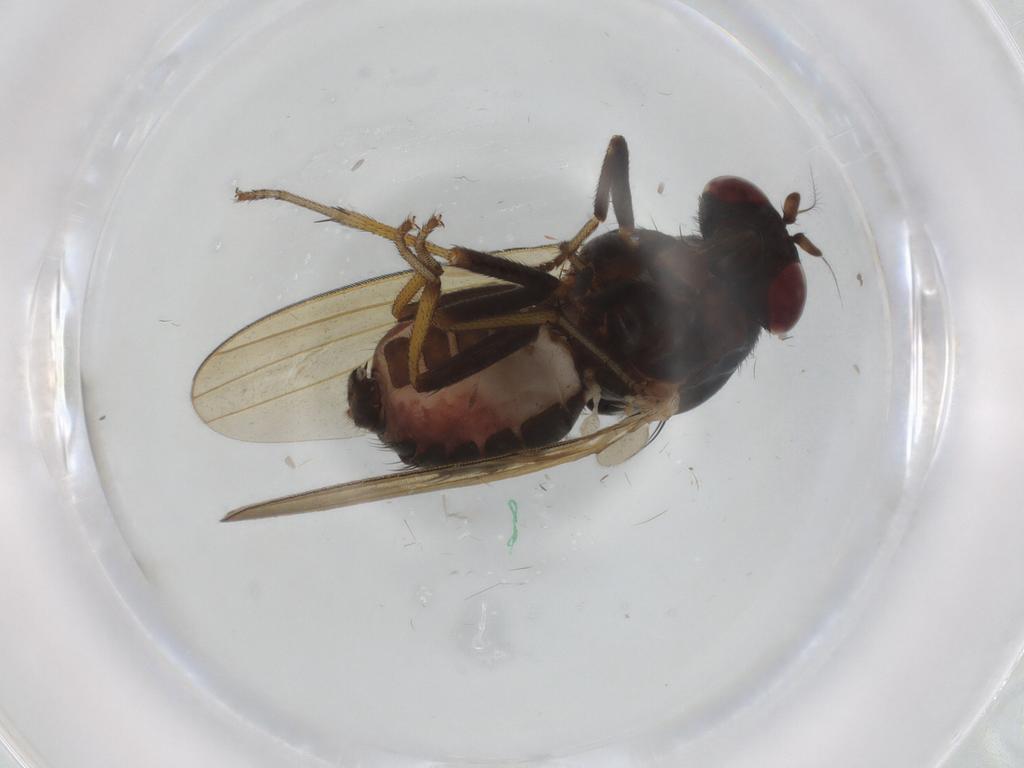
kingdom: Animalia
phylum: Arthropoda
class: Insecta
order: Diptera
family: Chironomidae
